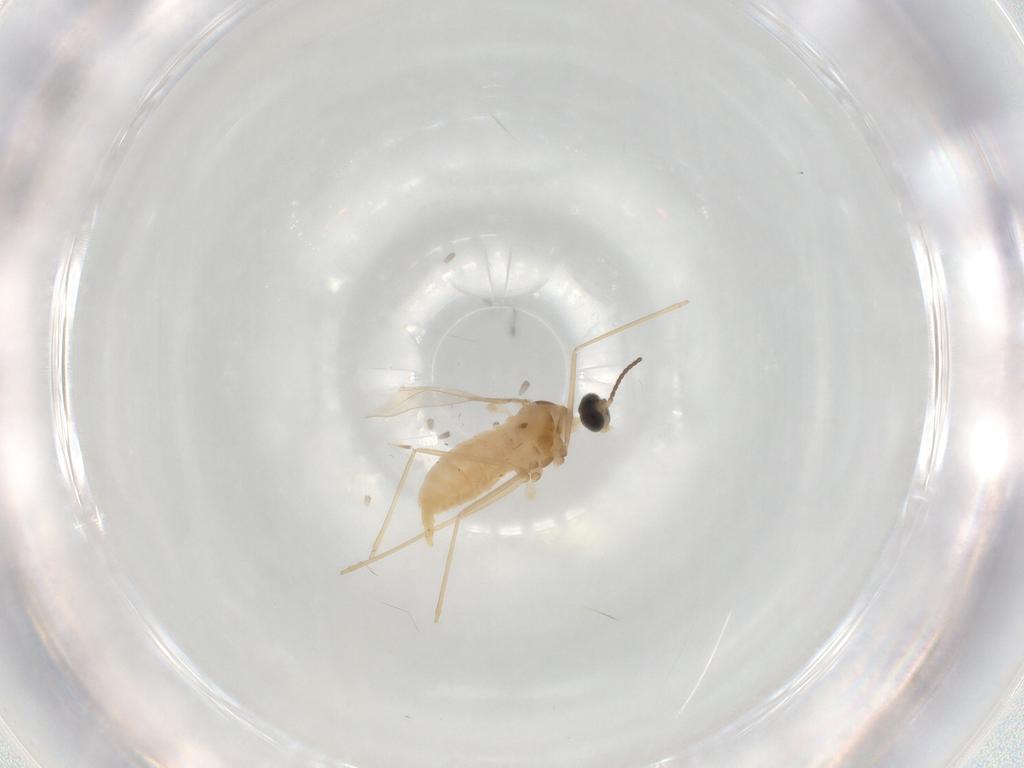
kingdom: Animalia
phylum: Arthropoda
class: Insecta
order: Diptera
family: Cecidomyiidae
